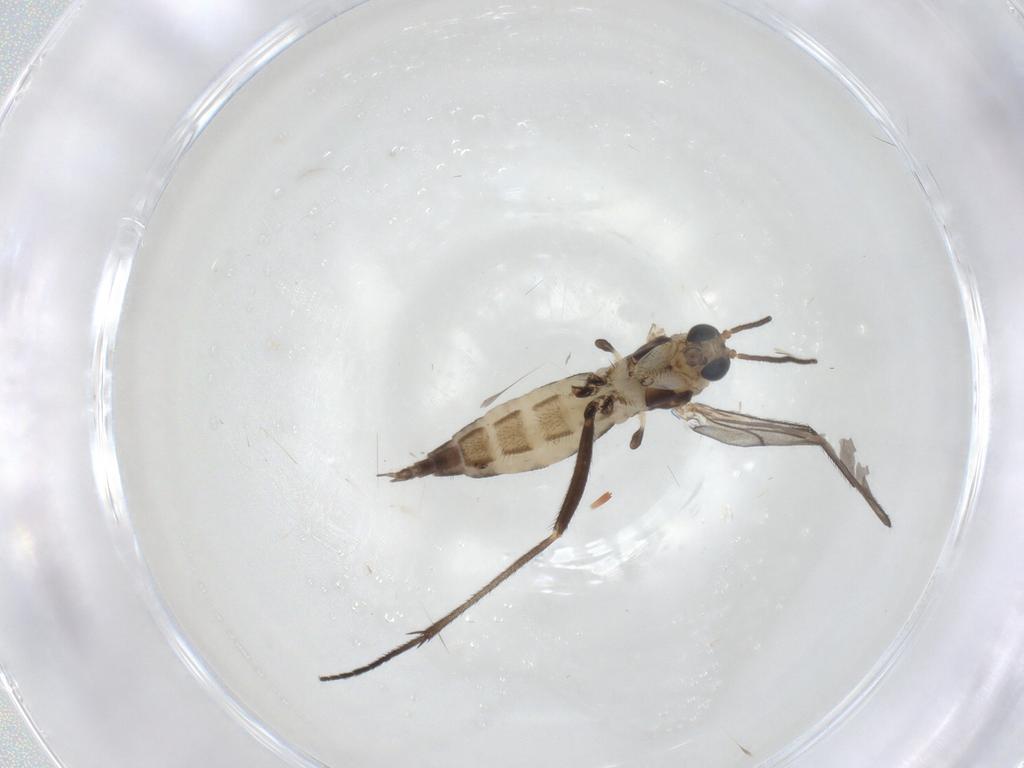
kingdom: Animalia
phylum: Arthropoda
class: Insecta
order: Diptera
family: Sciaridae
